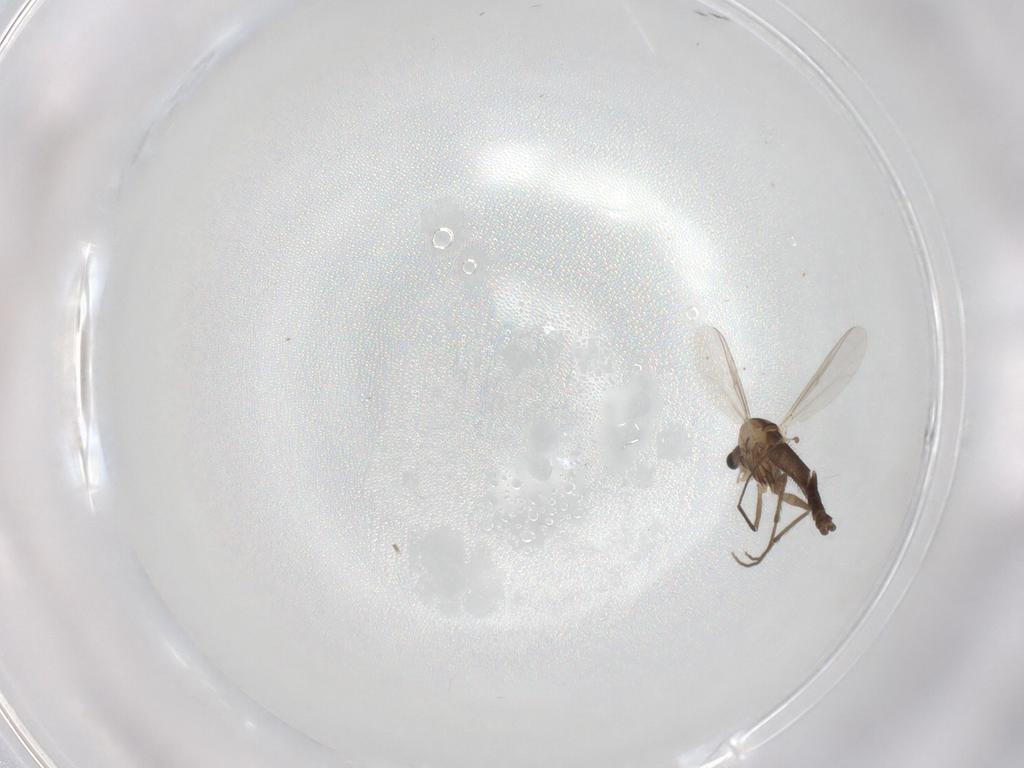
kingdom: Animalia
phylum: Arthropoda
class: Insecta
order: Diptera
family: Chironomidae
